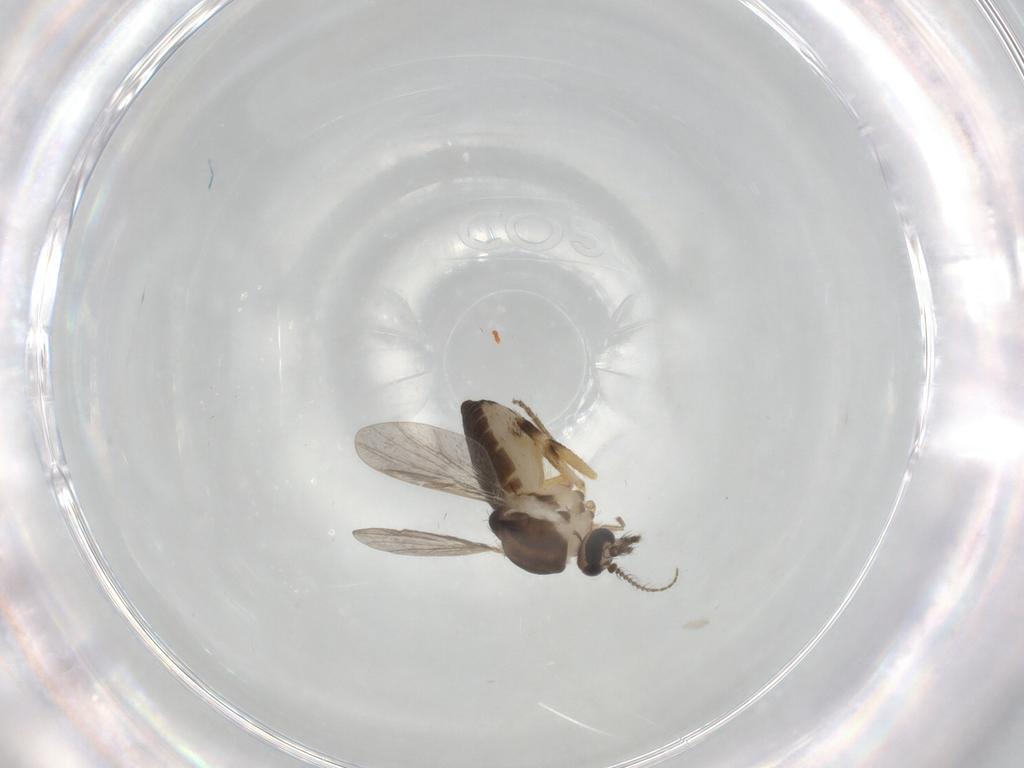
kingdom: Animalia
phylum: Arthropoda
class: Insecta
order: Diptera
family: Ceratopogonidae
